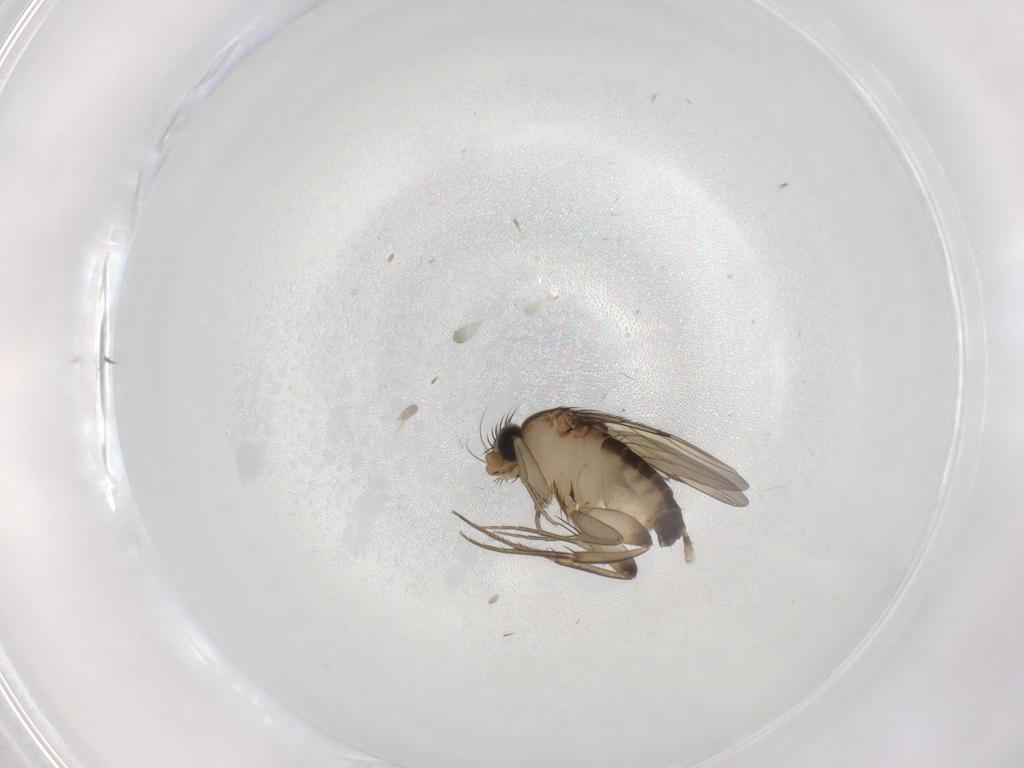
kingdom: Animalia
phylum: Arthropoda
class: Insecta
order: Diptera
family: Phoridae
